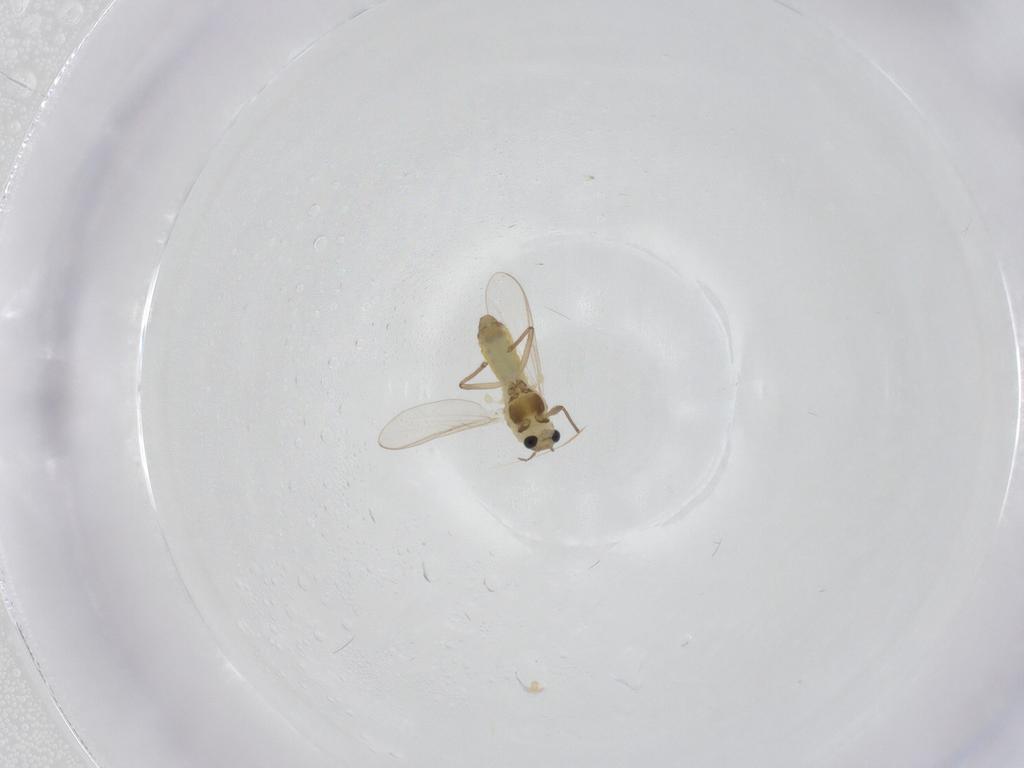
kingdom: Animalia
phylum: Arthropoda
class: Insecta
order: Diptera
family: Chironomidae
